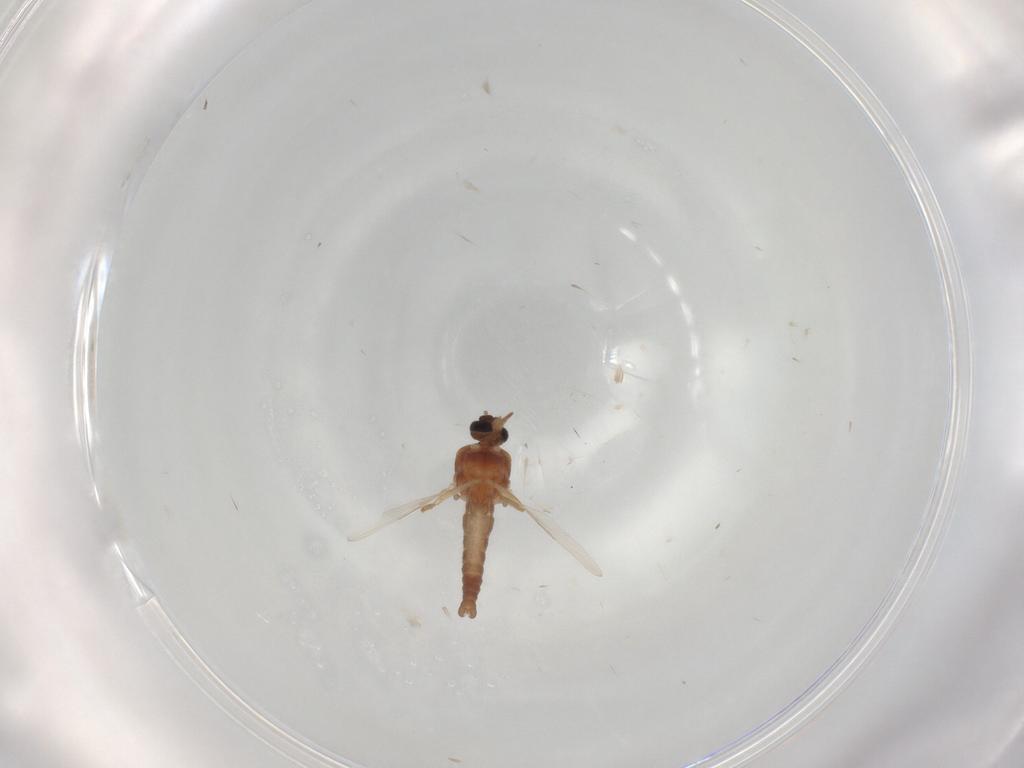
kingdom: Animalia
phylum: Arthropoda
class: Insecta
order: Diptera
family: Ceratopogonidae
